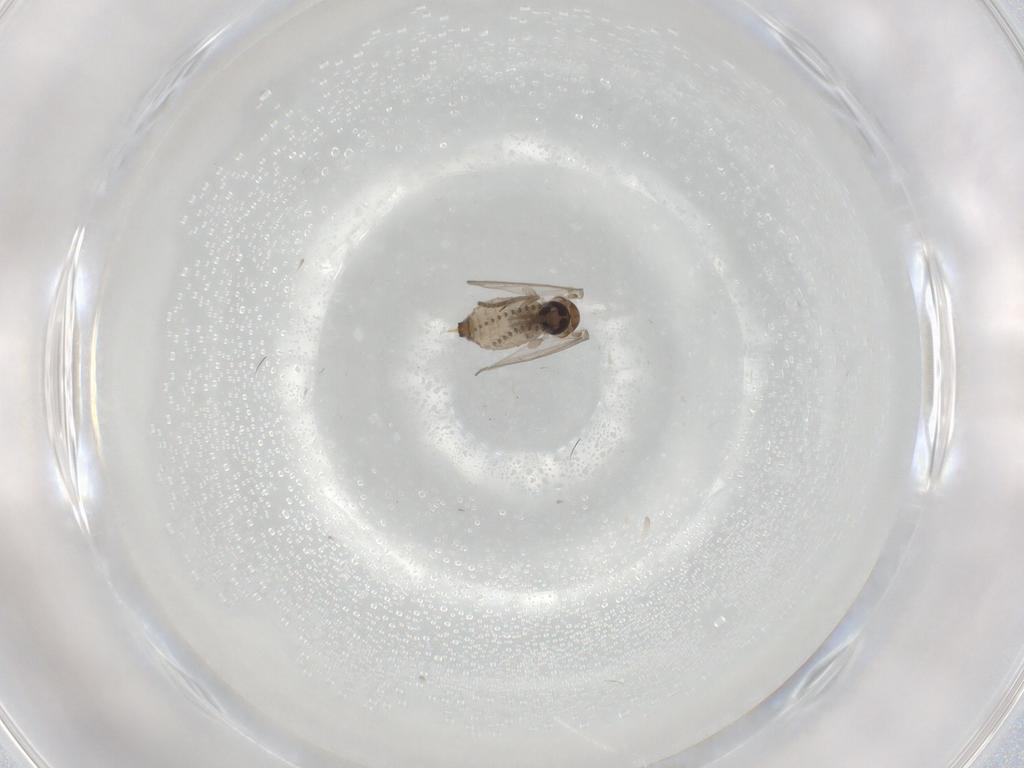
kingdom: Animalia
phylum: Arthropoda
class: Insecta
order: Diptera
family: Psychodidae
